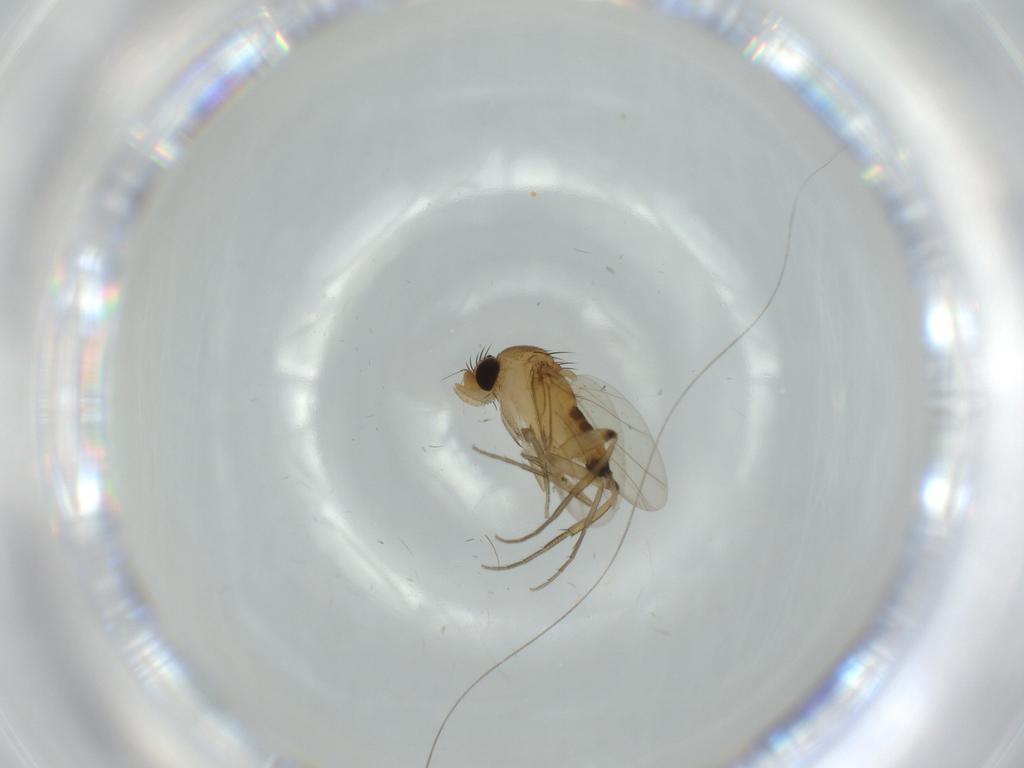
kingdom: Animalia
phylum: Arthropoda
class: Insecta
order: Diptera
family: Phoridae
